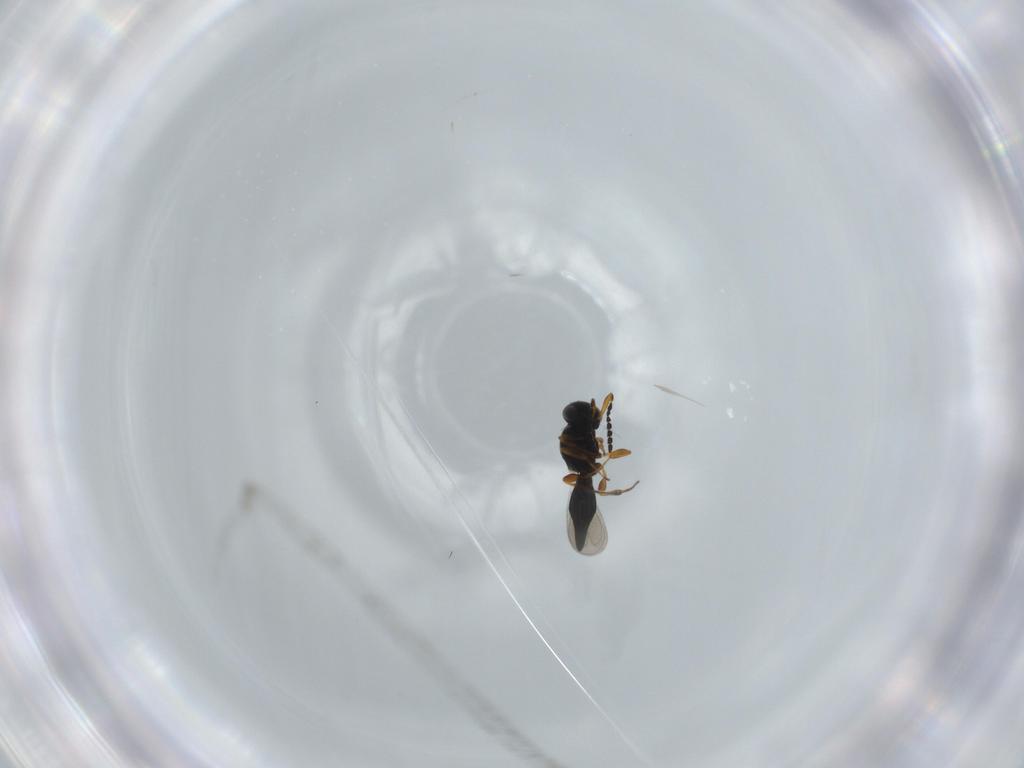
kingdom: Animalia
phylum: Arthropoda
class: Insecta
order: Hymenoptera
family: Platygastridae
